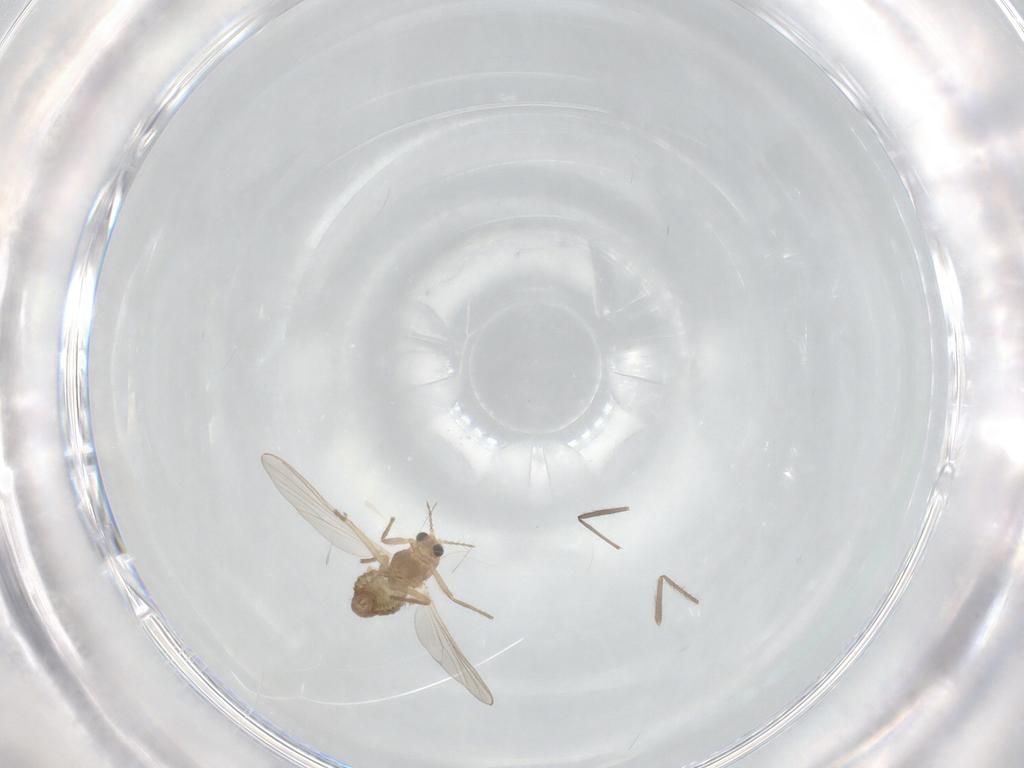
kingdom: Animalia
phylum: Arthropoda
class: Insecta
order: Diptera
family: Chironomidae
